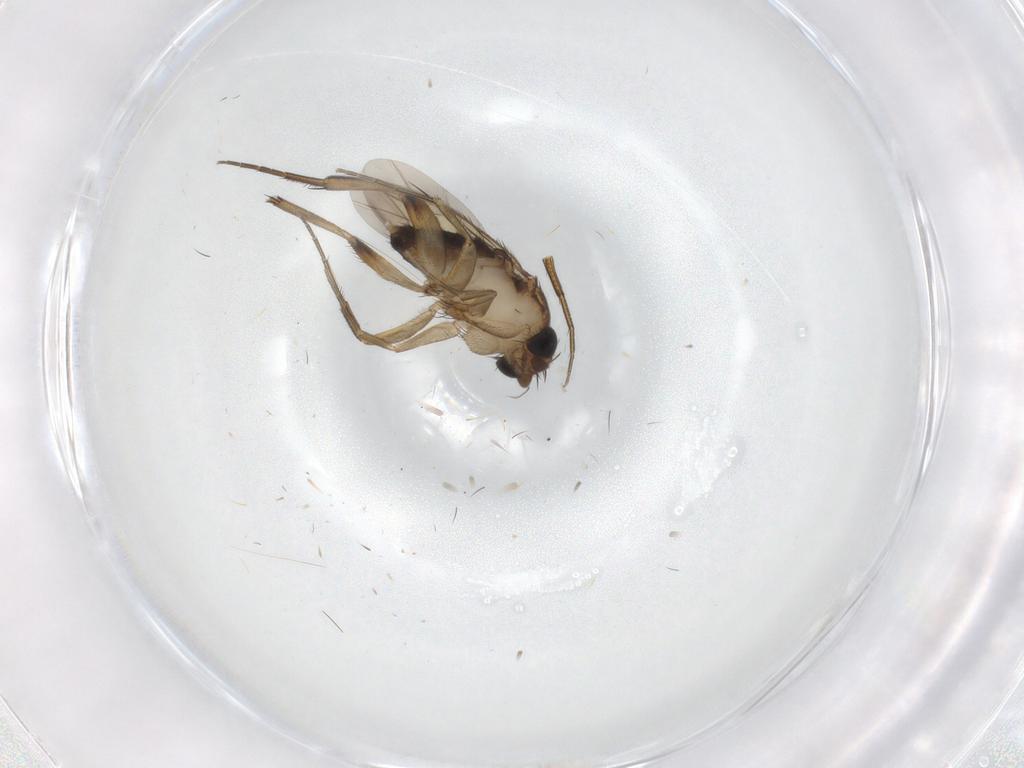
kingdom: Animalia
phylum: Arthropoda
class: Insecta
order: Diptera
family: Phoridae
